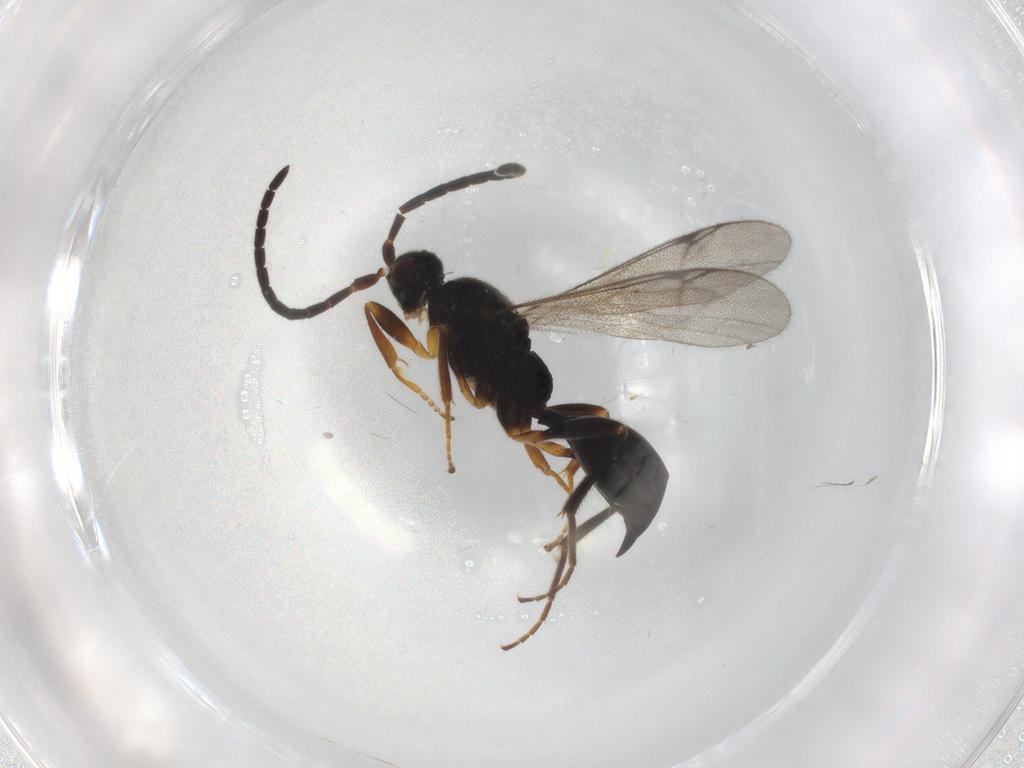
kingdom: Animalia
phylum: Arthropoda
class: Insecta
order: Hymenoptera
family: Proctotrupidae
